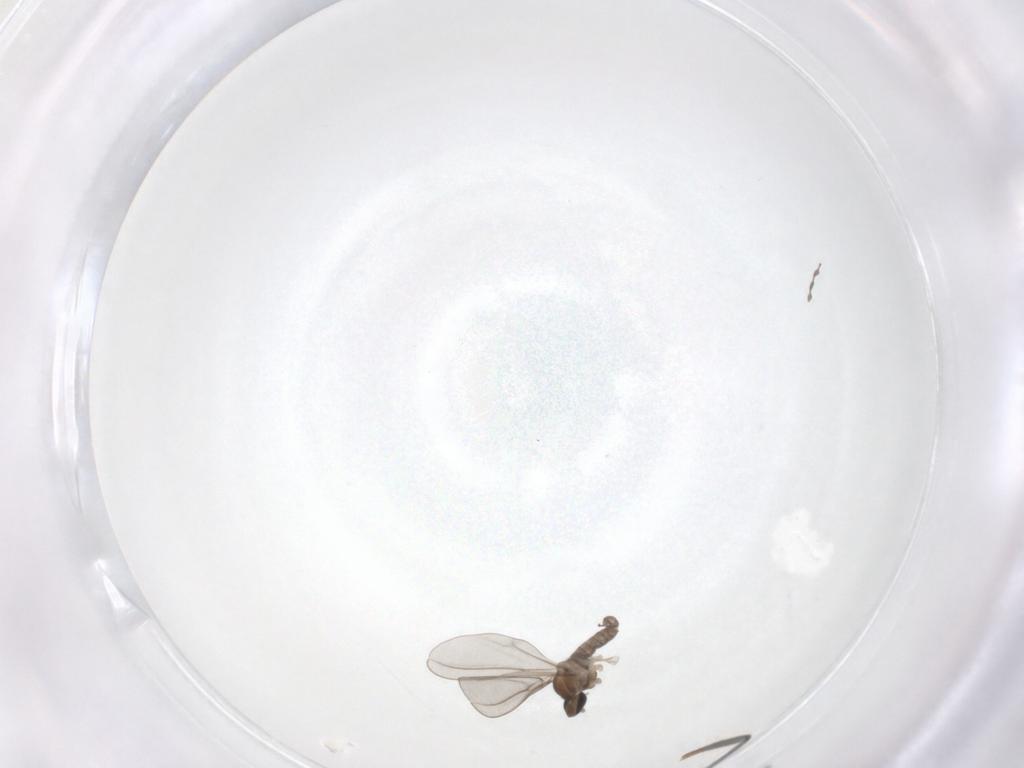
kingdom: Animalia
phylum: Arthropoda
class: Insecta
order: Diptera
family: Sciaridae
